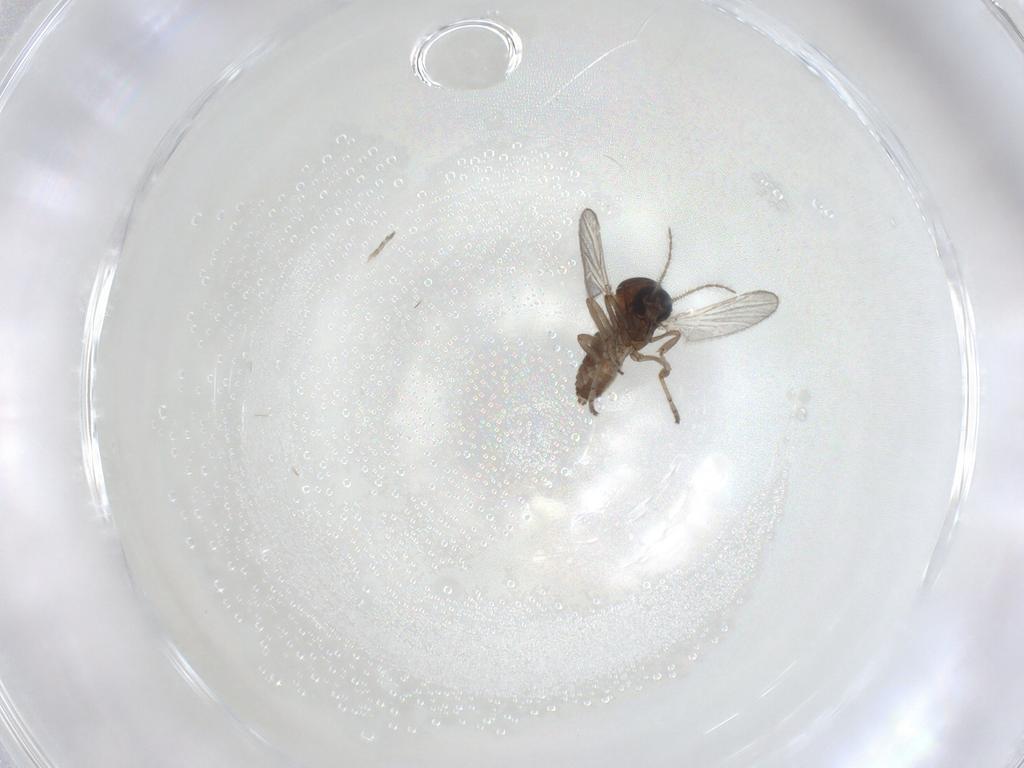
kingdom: Animalia
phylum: Arthropoda
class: Insecta
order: Diptera
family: Ceratopogonidae
